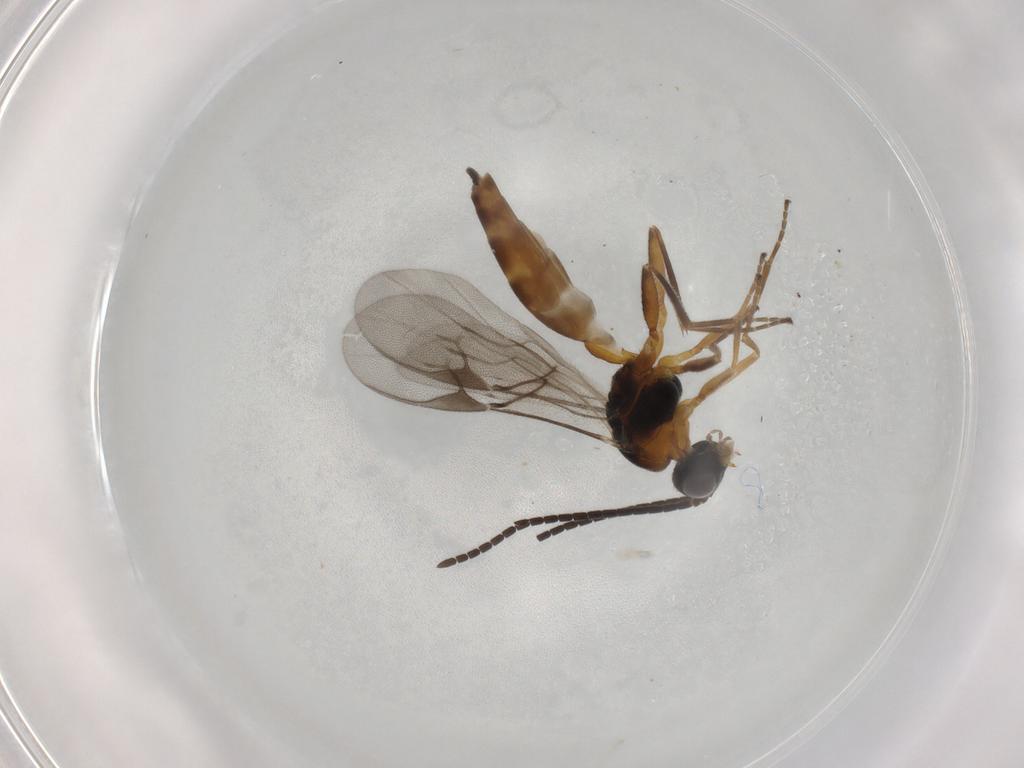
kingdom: Animalia
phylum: Arthropoda
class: Insecta
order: Hymenoptera
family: Braconidae
